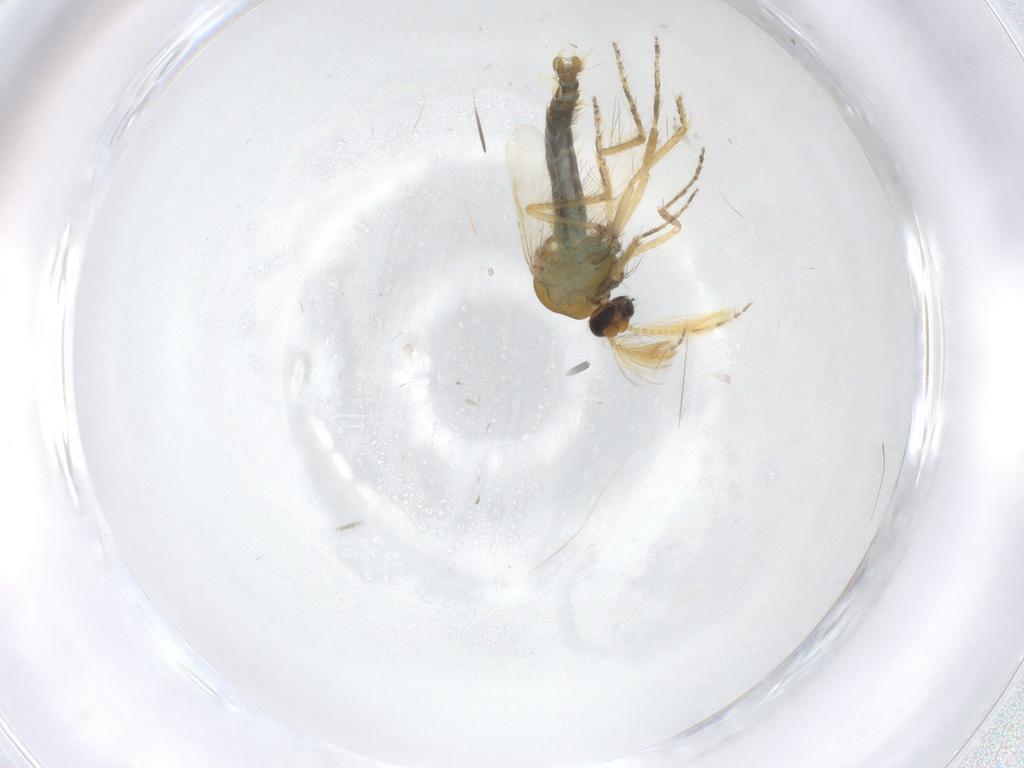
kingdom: Animalia
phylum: Arthropoda
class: Insecta
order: Diptera
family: Ceratopogonidae
